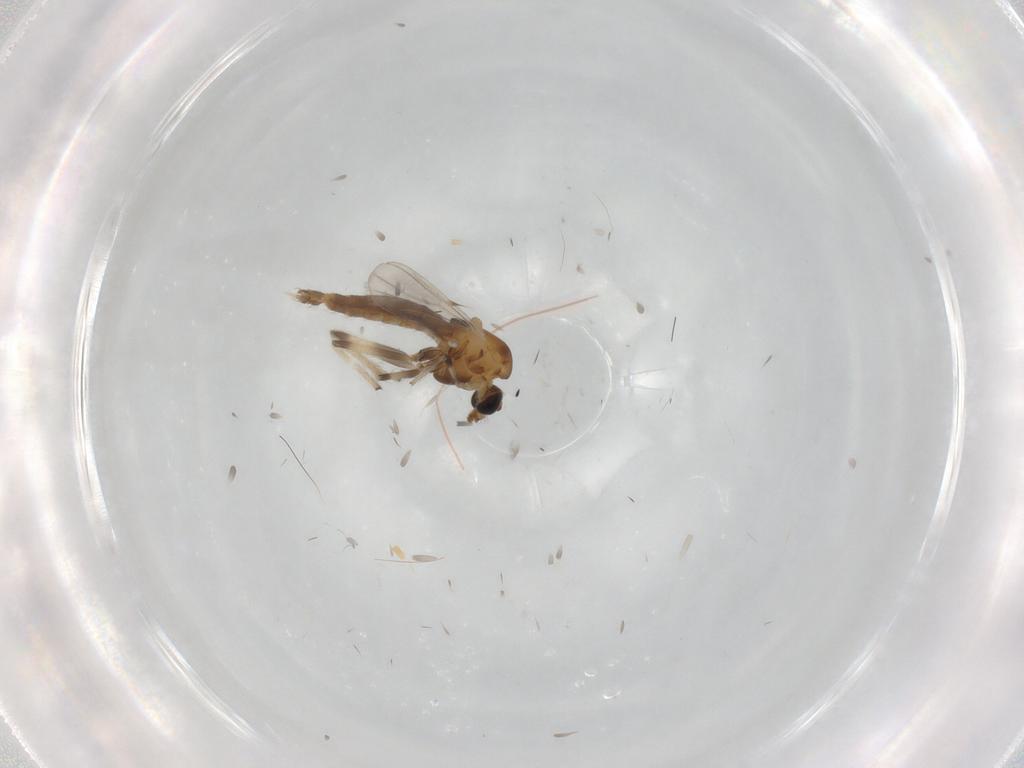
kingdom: Animalia
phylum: Arthropoda
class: Insecta
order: Diptera
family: Chironomidae
